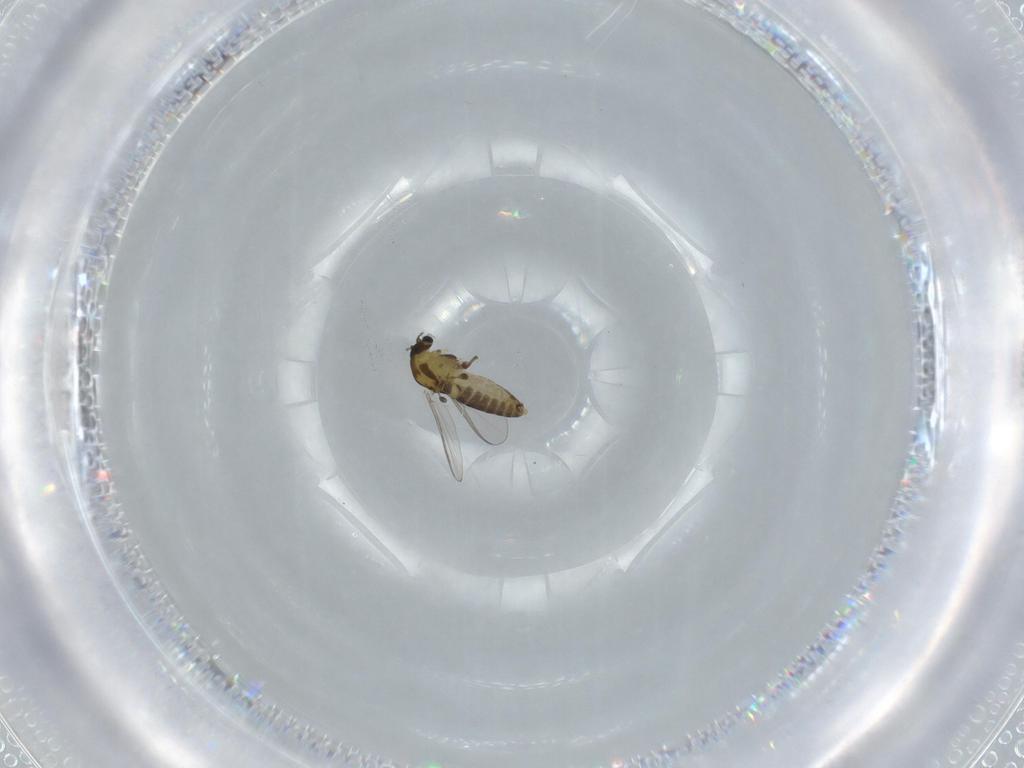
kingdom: Animalia
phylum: Arthropoda
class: Insecta
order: Diptera
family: Chironomidae
